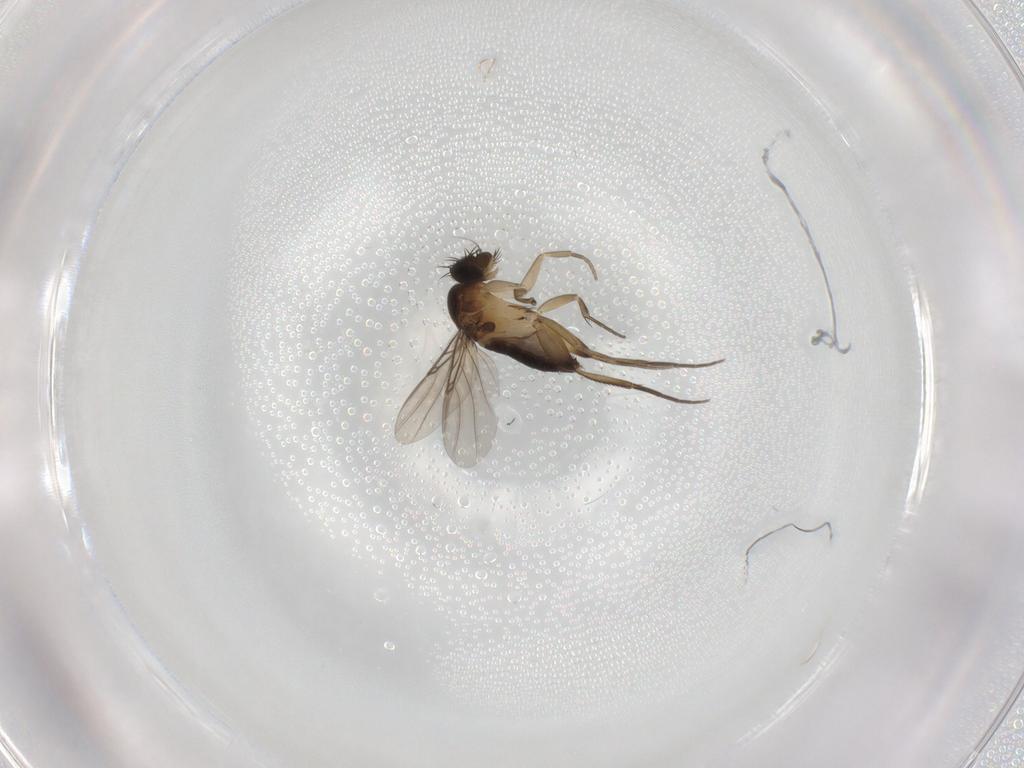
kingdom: Animalia
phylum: Arthropoda
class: Insecta
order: Diptera
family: Phoridae
